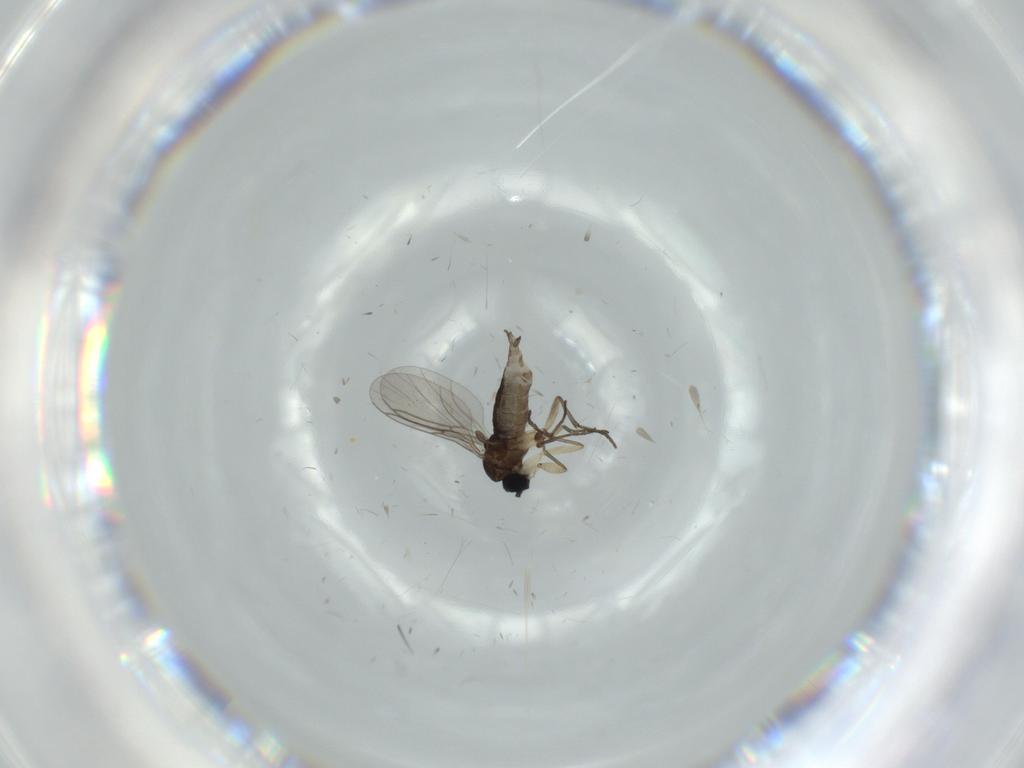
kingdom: Animalia
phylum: Arthropoda
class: Insecta
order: Diptera
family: Sciaridae
